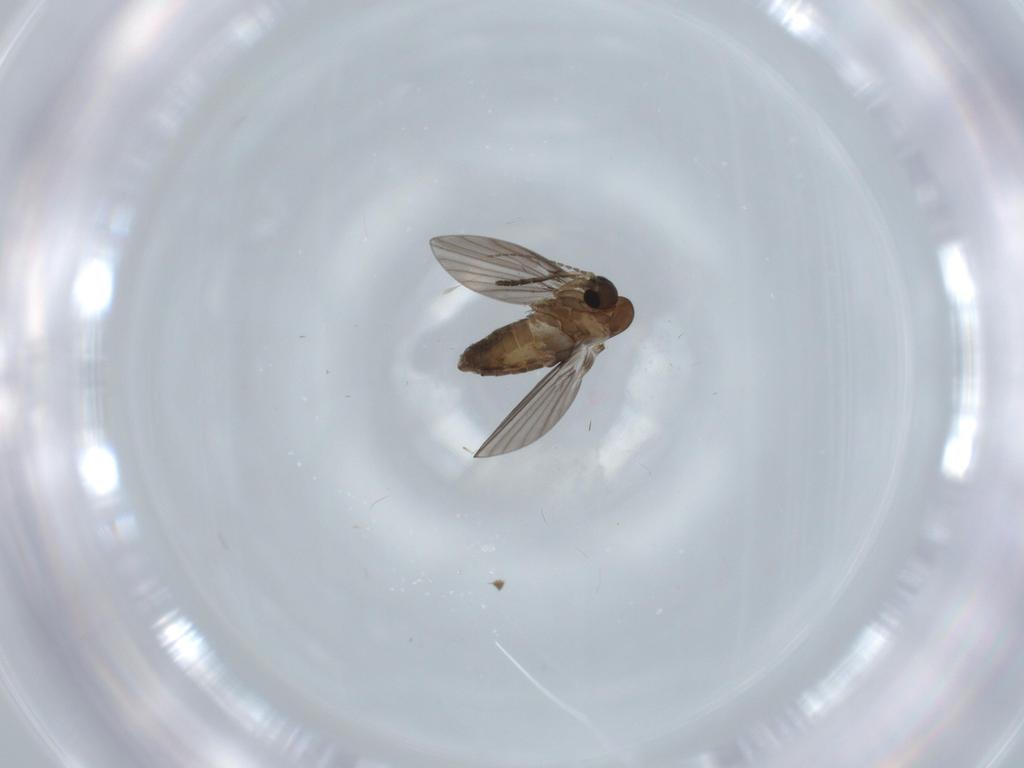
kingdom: Animalia
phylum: Arthropoda
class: Insecta
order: Diptera
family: Psychodidae
